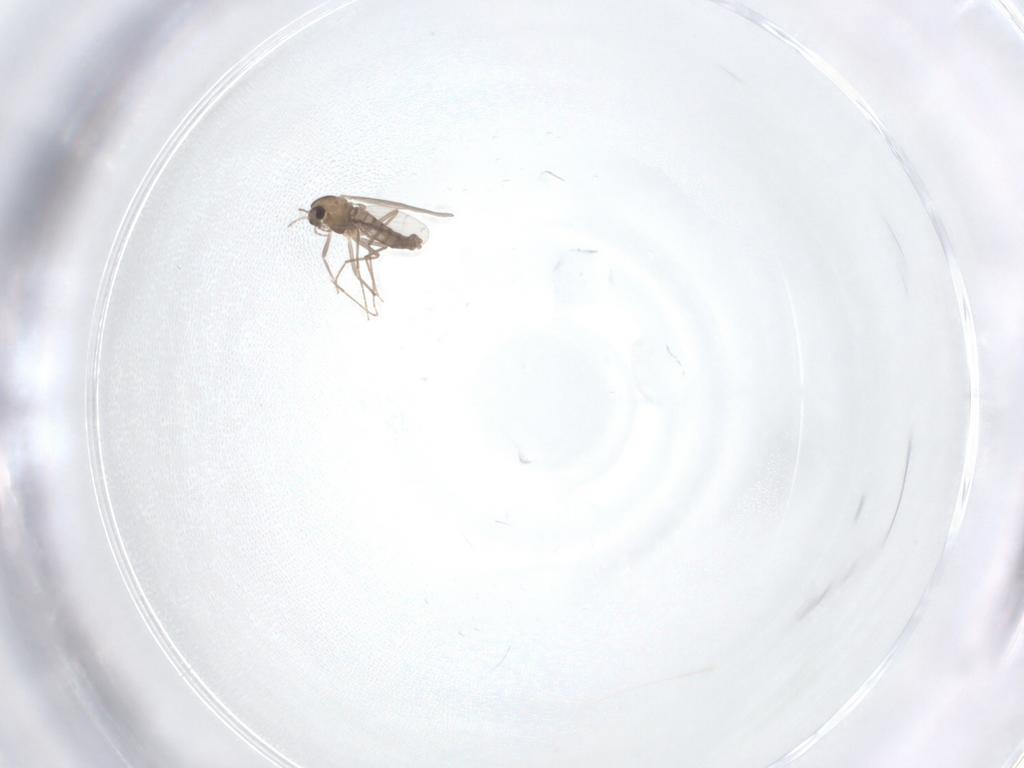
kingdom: Animalia
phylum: Arthropoda
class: Insecta
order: Diptera
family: Chironomidae
